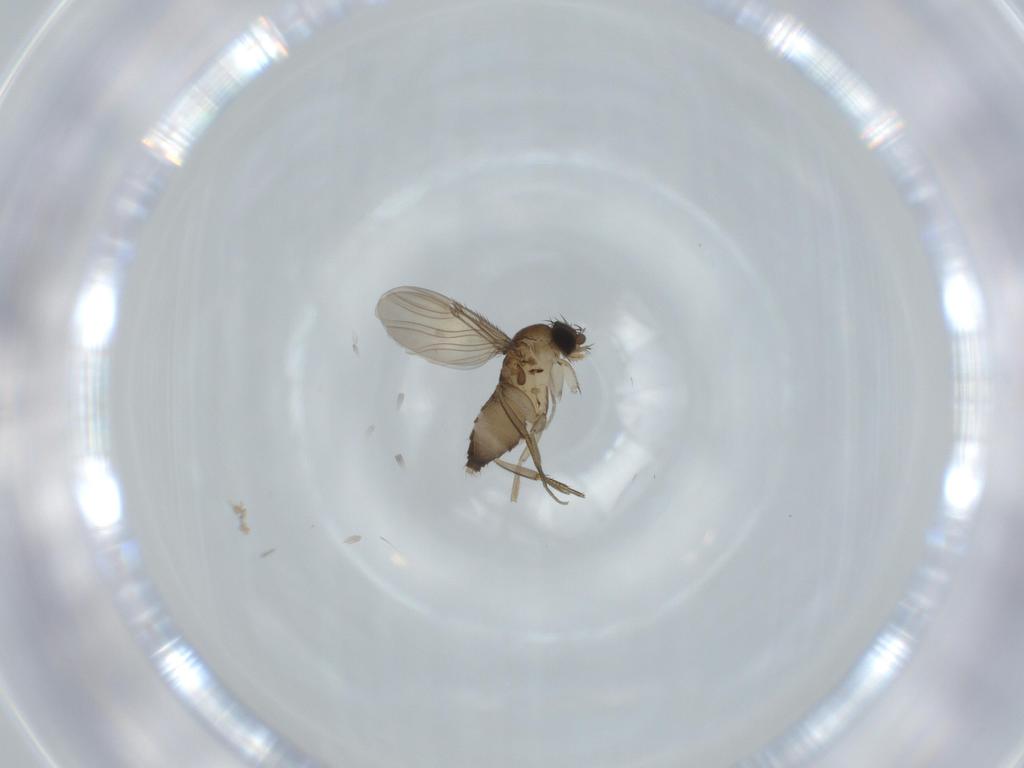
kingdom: Animalia
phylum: Arthropoda
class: Insecta
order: Diptera
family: Phoridae
